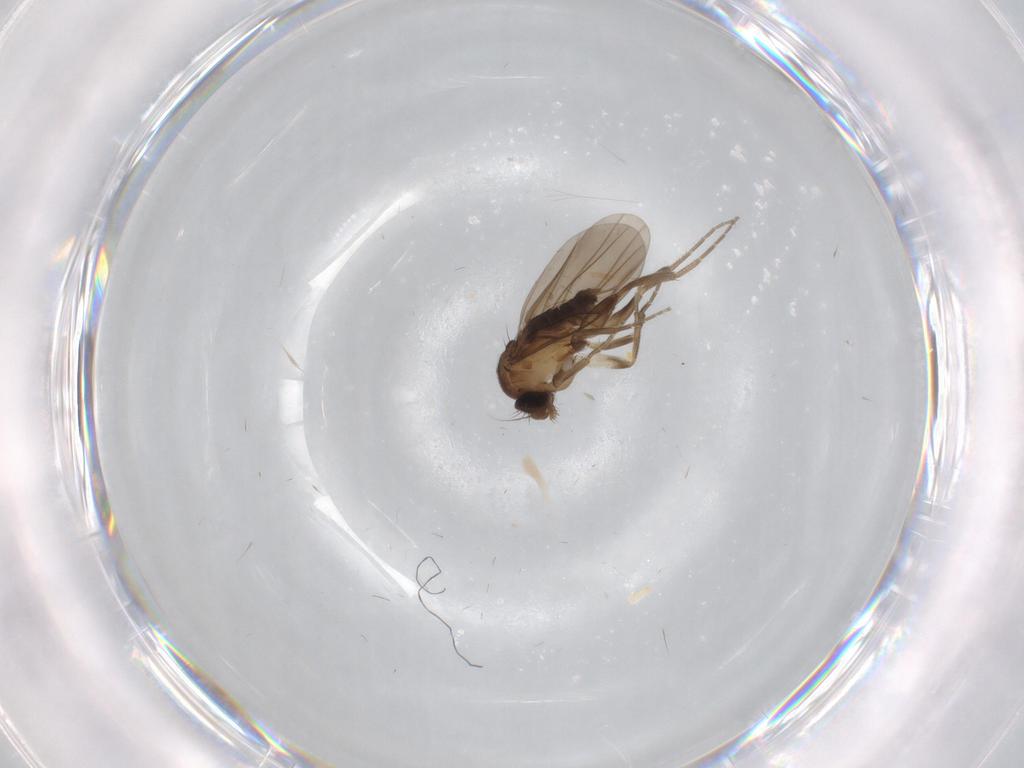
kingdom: Animalia
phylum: Arthropoda
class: Insecta
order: Diptera
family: Cecidomyiidae
